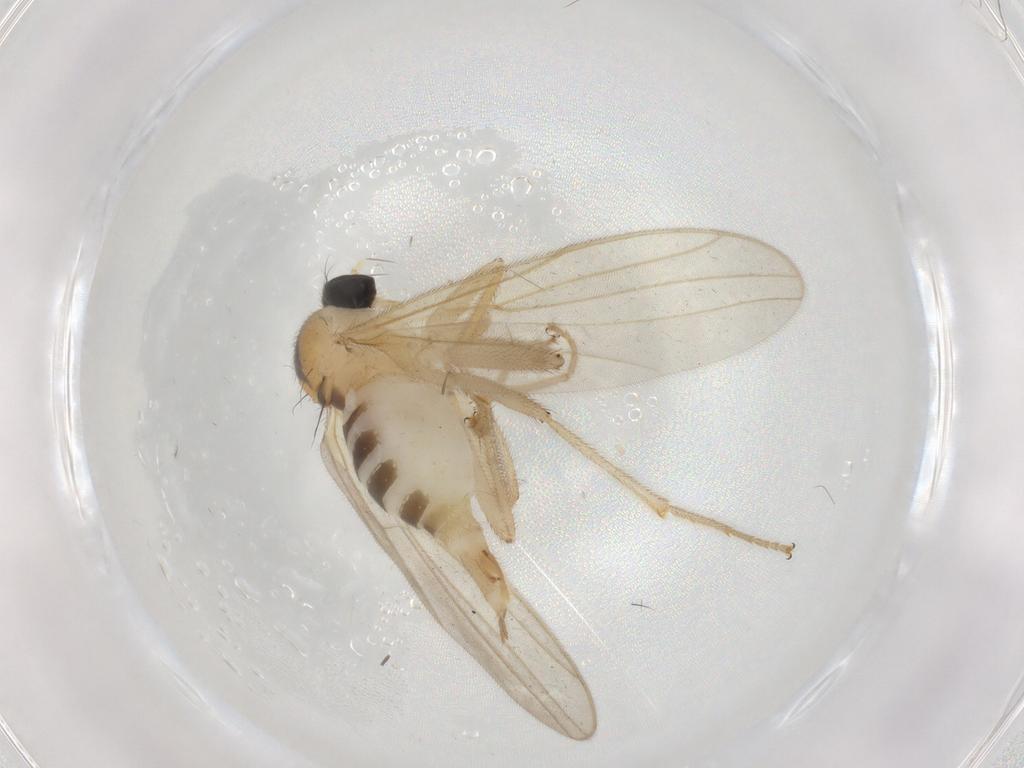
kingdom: Animalia
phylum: Arthropoda
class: Insecta
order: Diptera
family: Hybotidae
